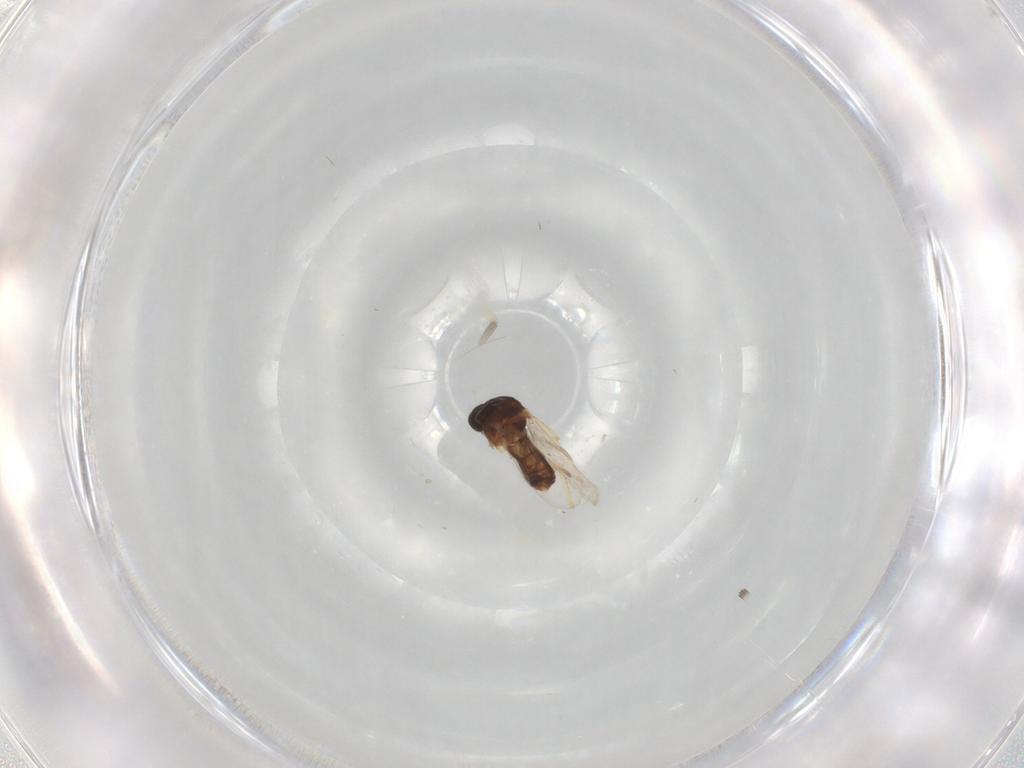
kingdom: Animalia
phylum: Arthropoda
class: Insecta
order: Diptera
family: Ceratopogonidae
